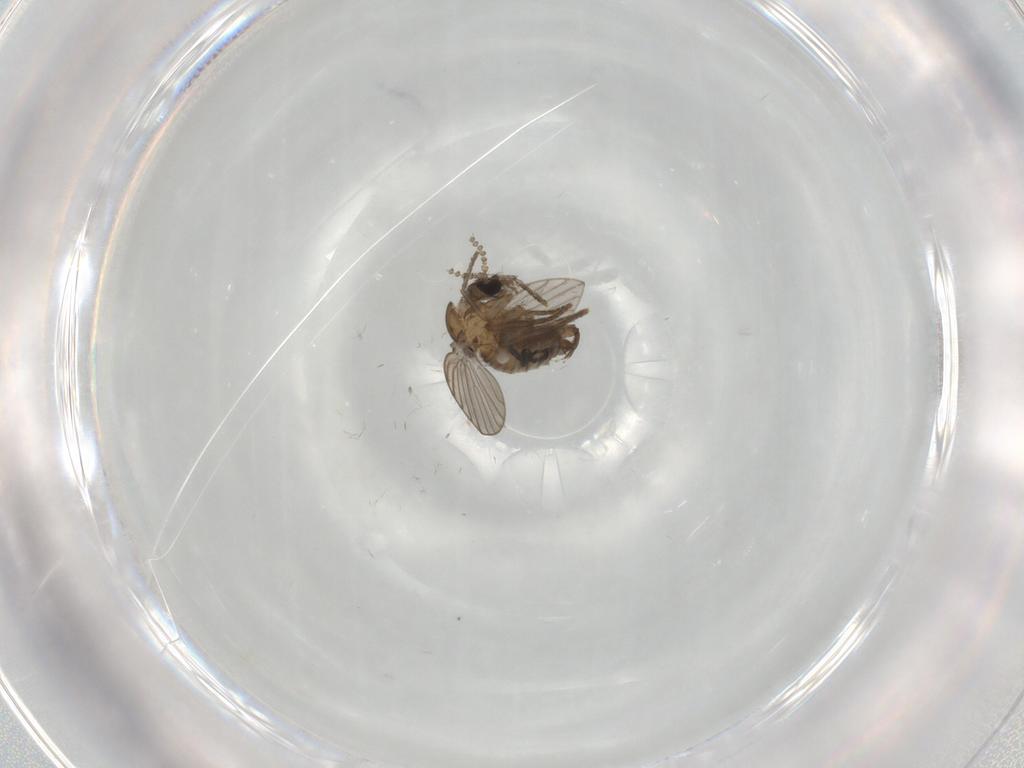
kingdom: Animalia
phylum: Arthropoda
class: Insecta
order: Diptera
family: Psychodidae
